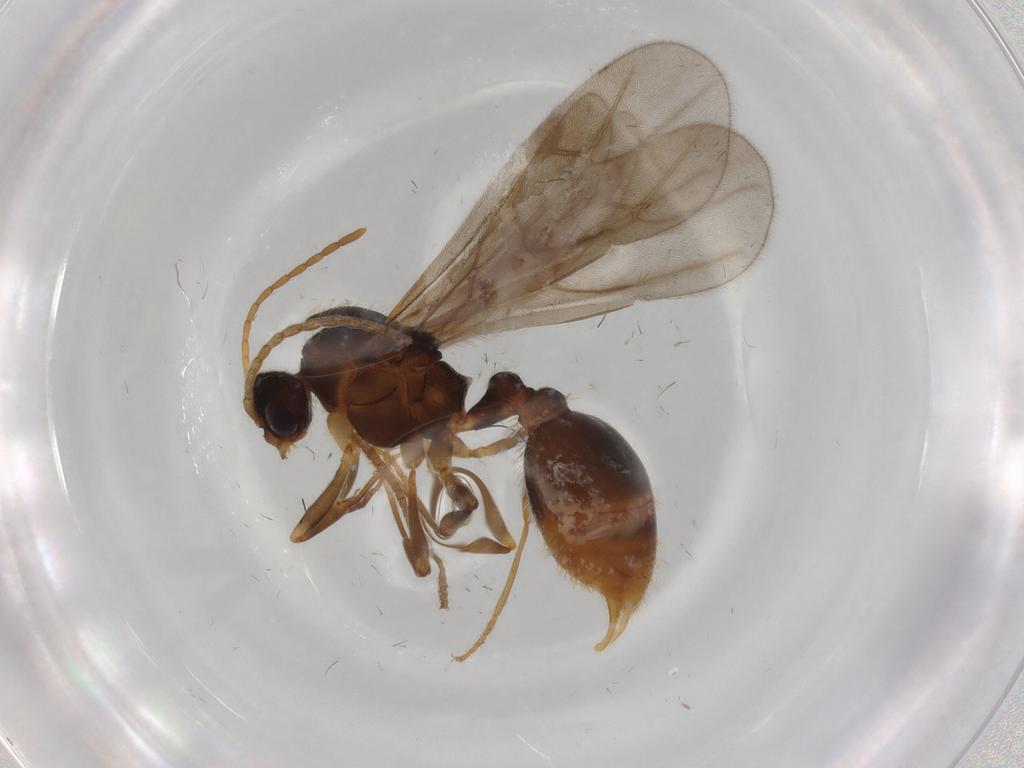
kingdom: Animalia
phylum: Arthropoda
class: Insecta
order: Hymenoptera
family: Formicidae
